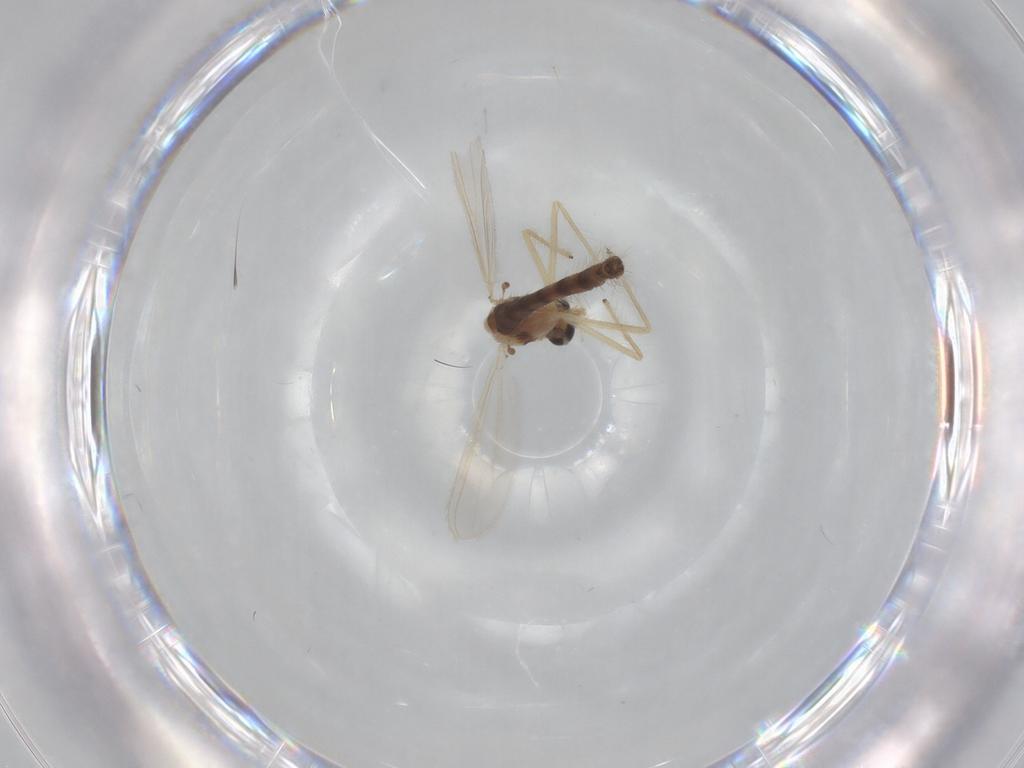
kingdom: Animalia
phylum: Arthropoda
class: Insecta
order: Diptera
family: Chironomidae
